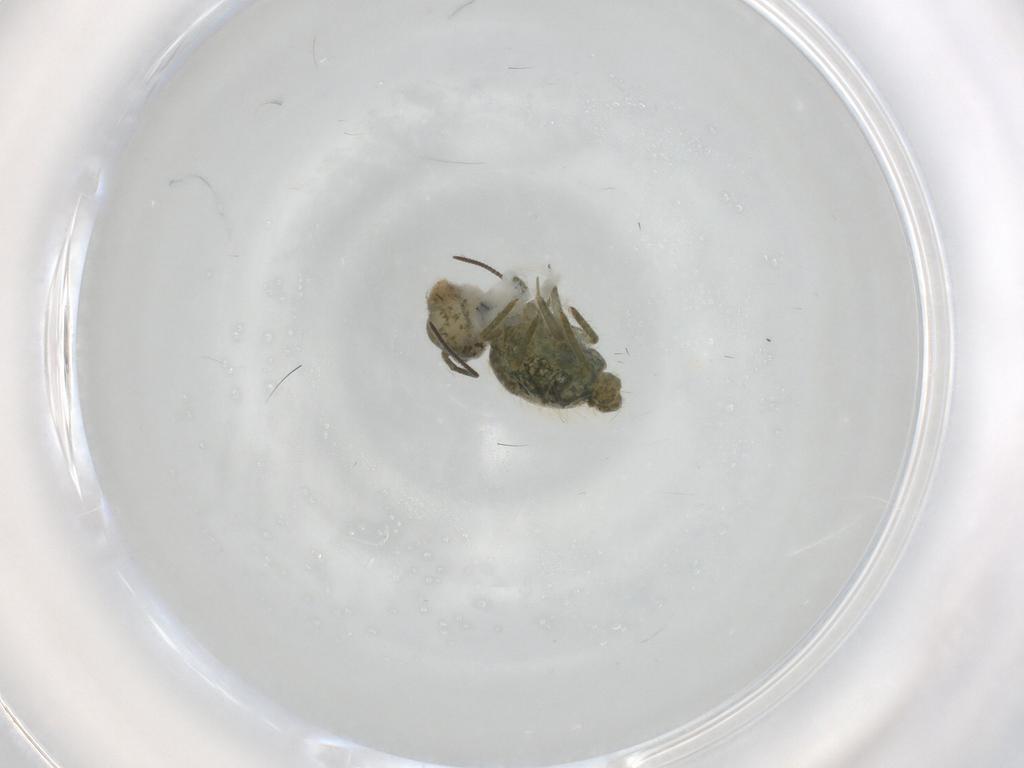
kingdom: Animalia
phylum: Arthropoda
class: Collembola
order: Symphypleona
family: Sminthuridae
